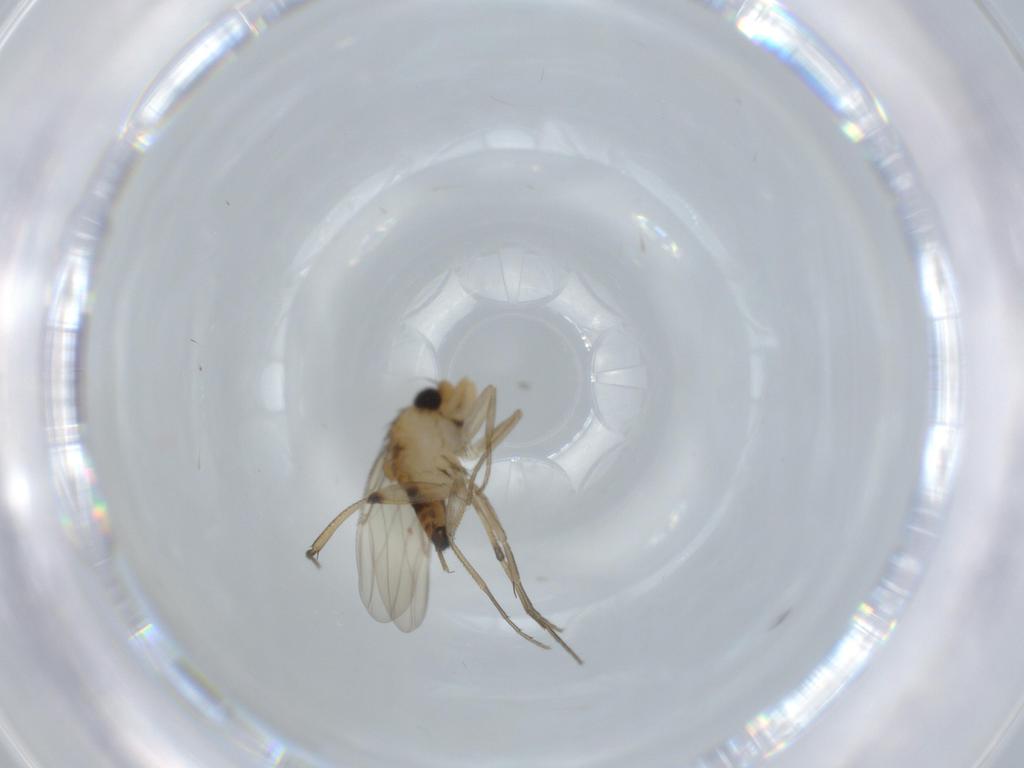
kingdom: Animalia
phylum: Arthropoda
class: Insecta
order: Diptera
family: Phoridae
